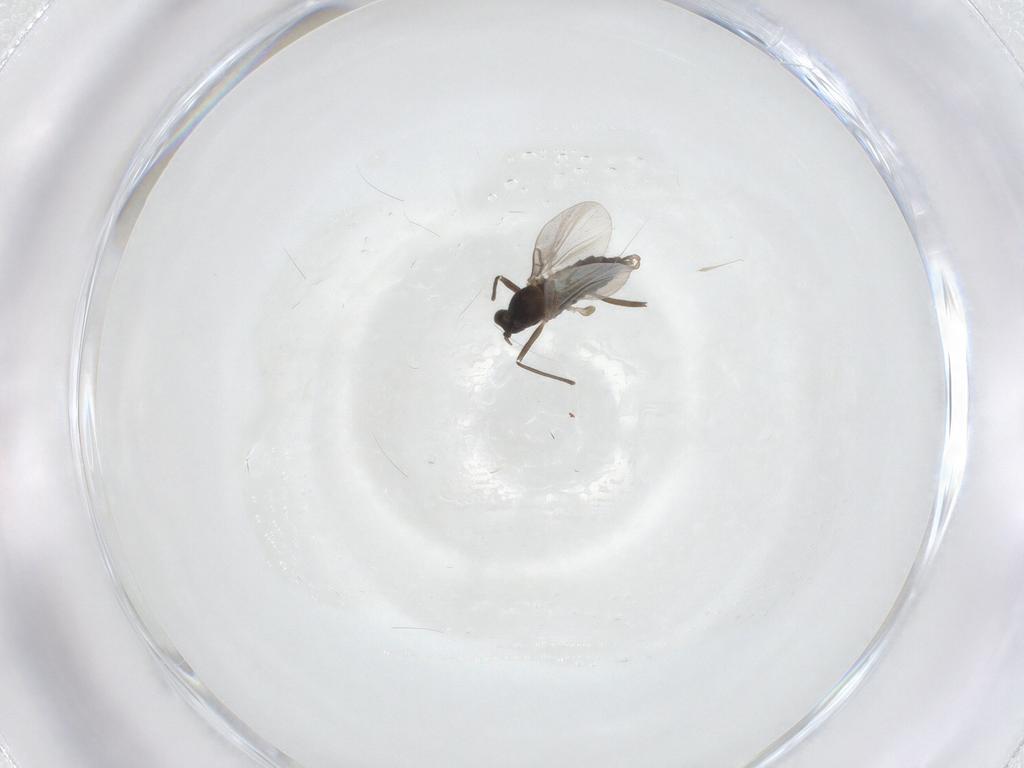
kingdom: Animalia
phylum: Arthropoda
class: Insecta
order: Diptera
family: Cecidomyiidae
